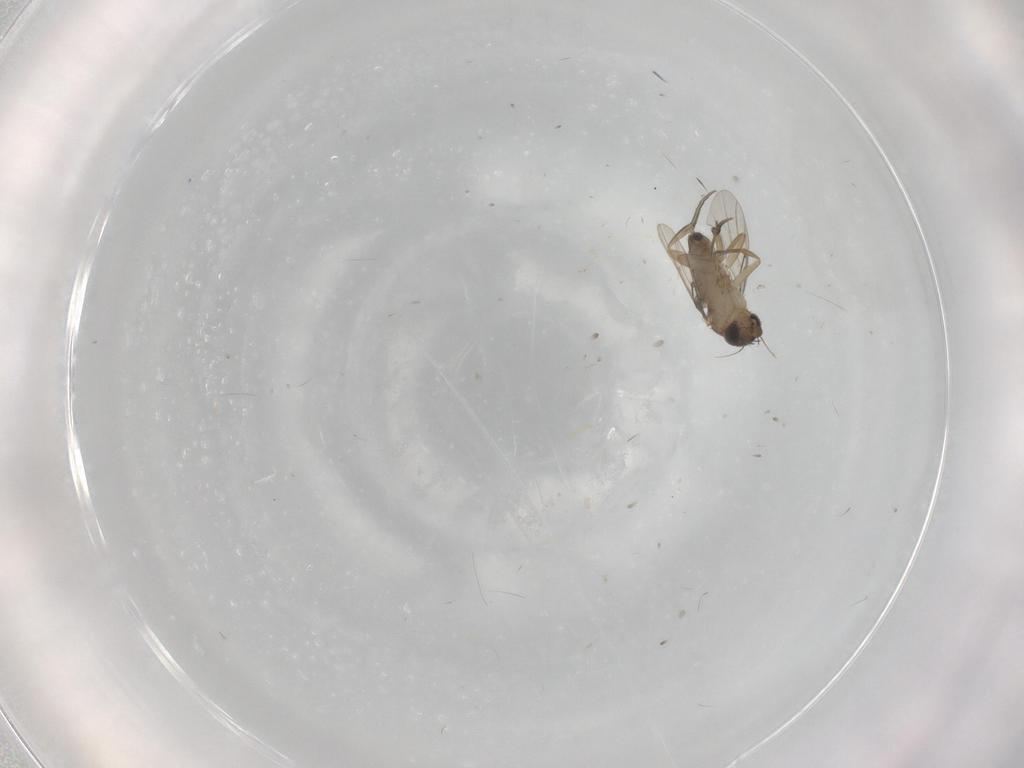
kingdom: Animalia
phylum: Arthropoda
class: Insecta
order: Diptera
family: Phoridae
